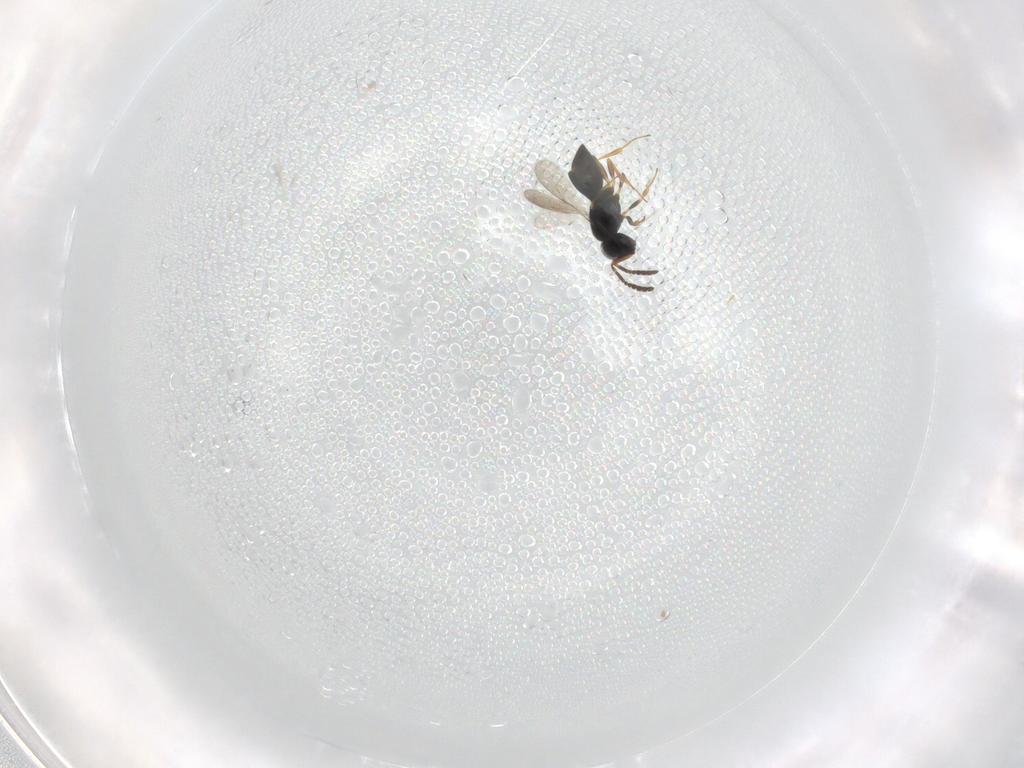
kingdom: Animalia
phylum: Arthropoda
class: Insecta
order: Hymenoptera
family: Scelionidae
